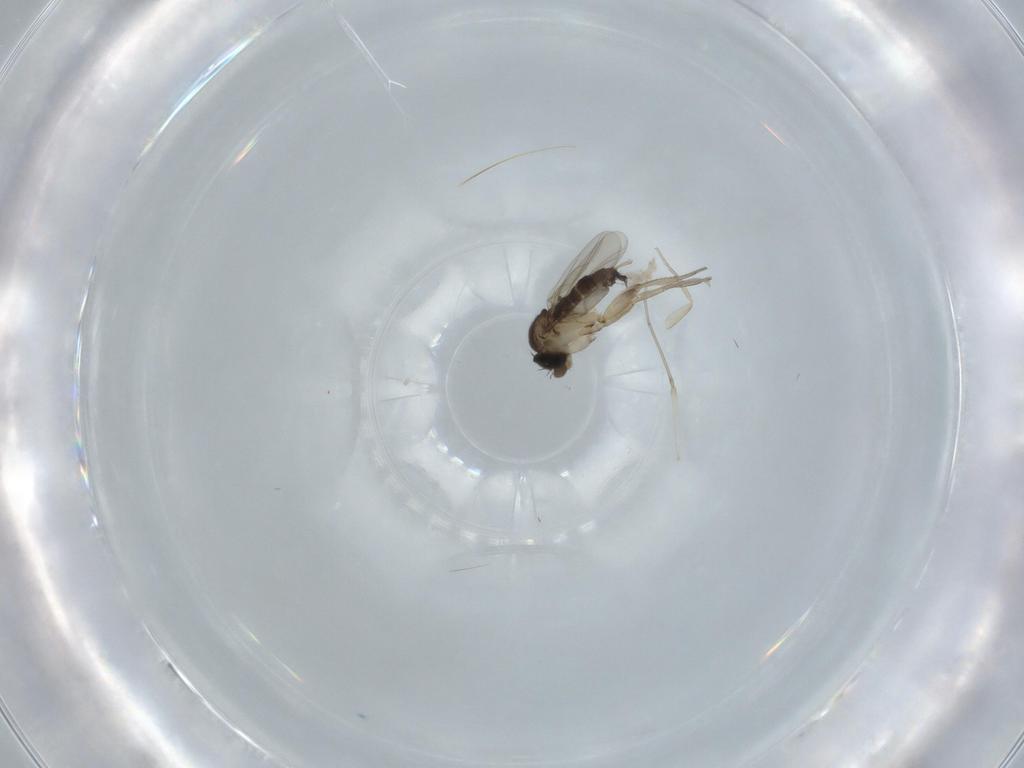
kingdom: Animalia
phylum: Arthropoda
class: Insecta
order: Diptera
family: Phoridae
